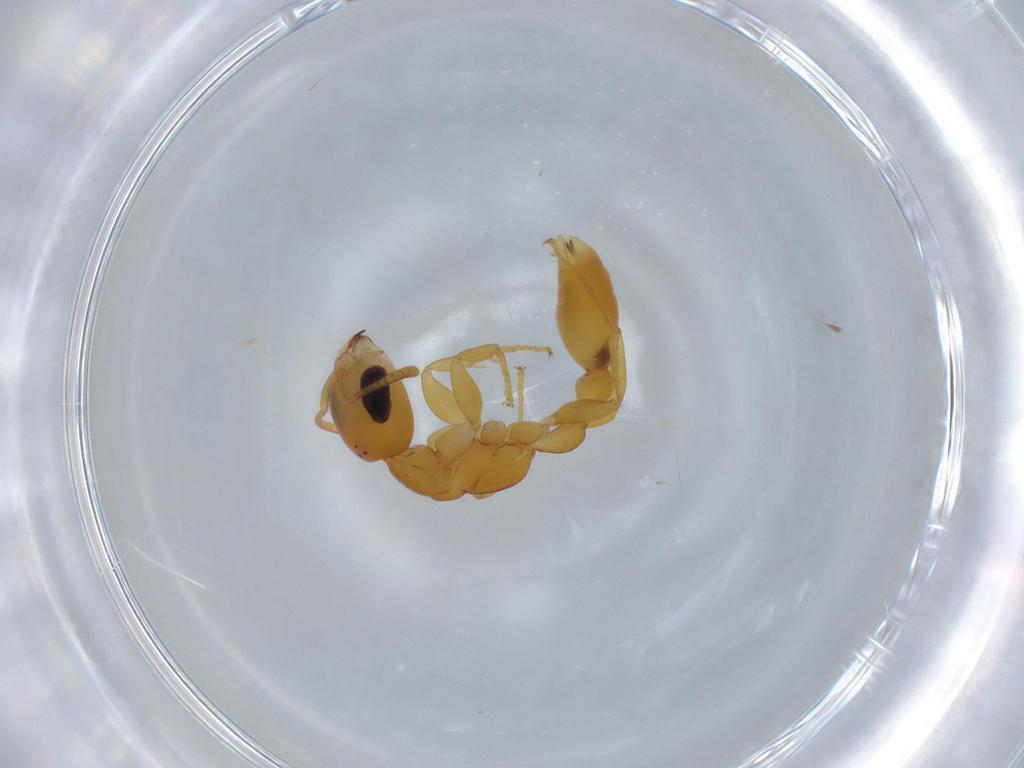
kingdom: Animalia
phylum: Arthropoda
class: Insecta
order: Hymenoptera
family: Formicidae
